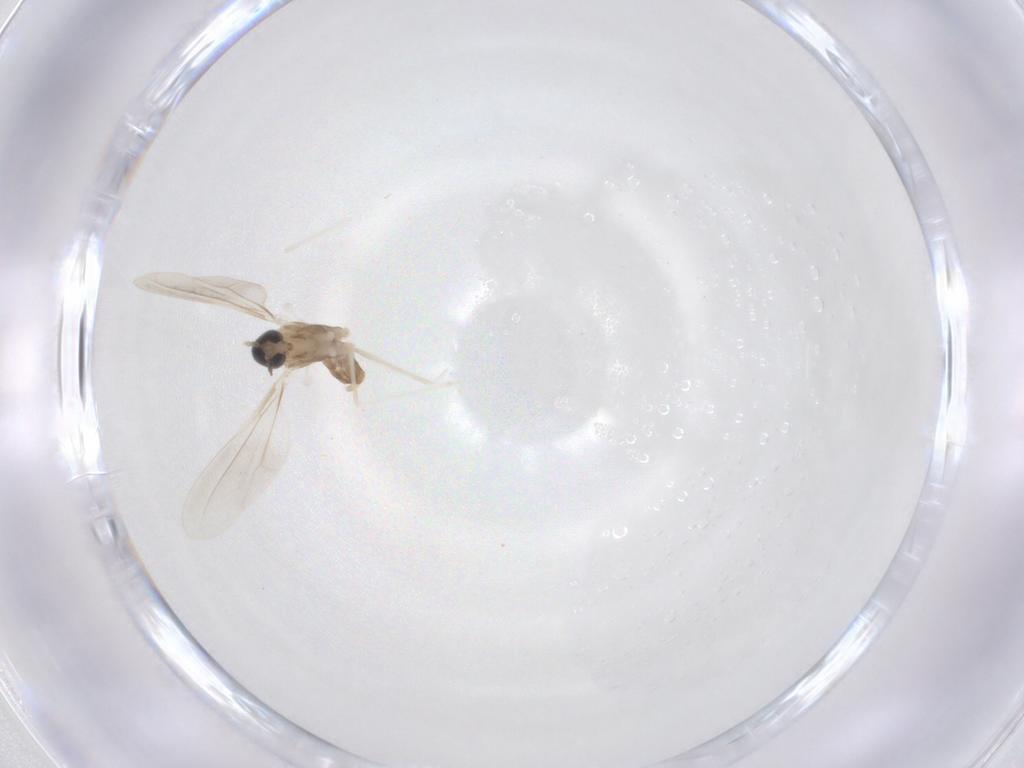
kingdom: Animalia
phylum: Arthropoda
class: Insecta
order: Diptera
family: Cecidomyiidae
